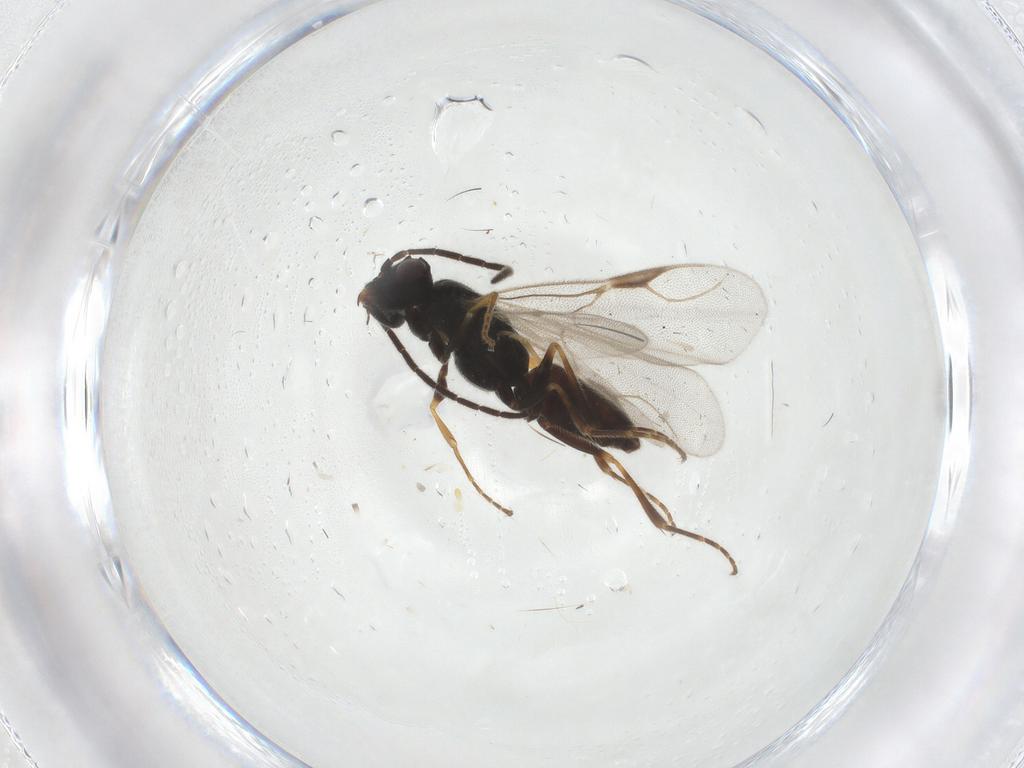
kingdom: Animalia
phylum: Arthropoda
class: Insecta
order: Hymenoptera
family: Dryinidae
